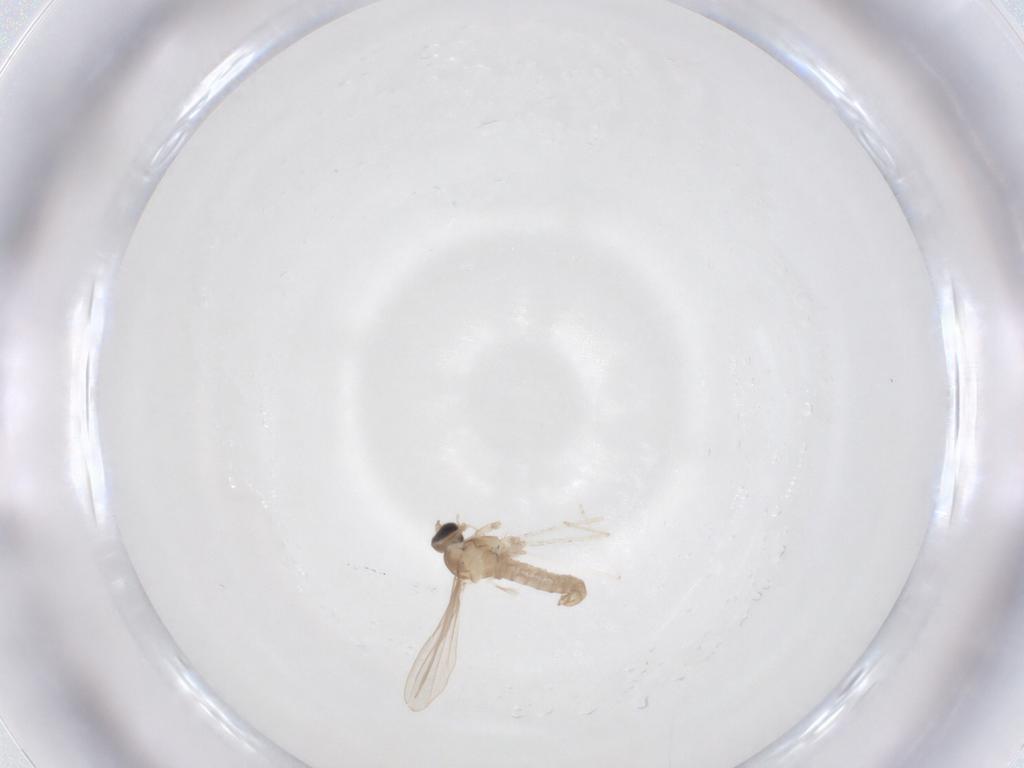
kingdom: Animalia
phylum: Arthropoda
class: Insecta
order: Diptera
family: Cecidomyiidae
